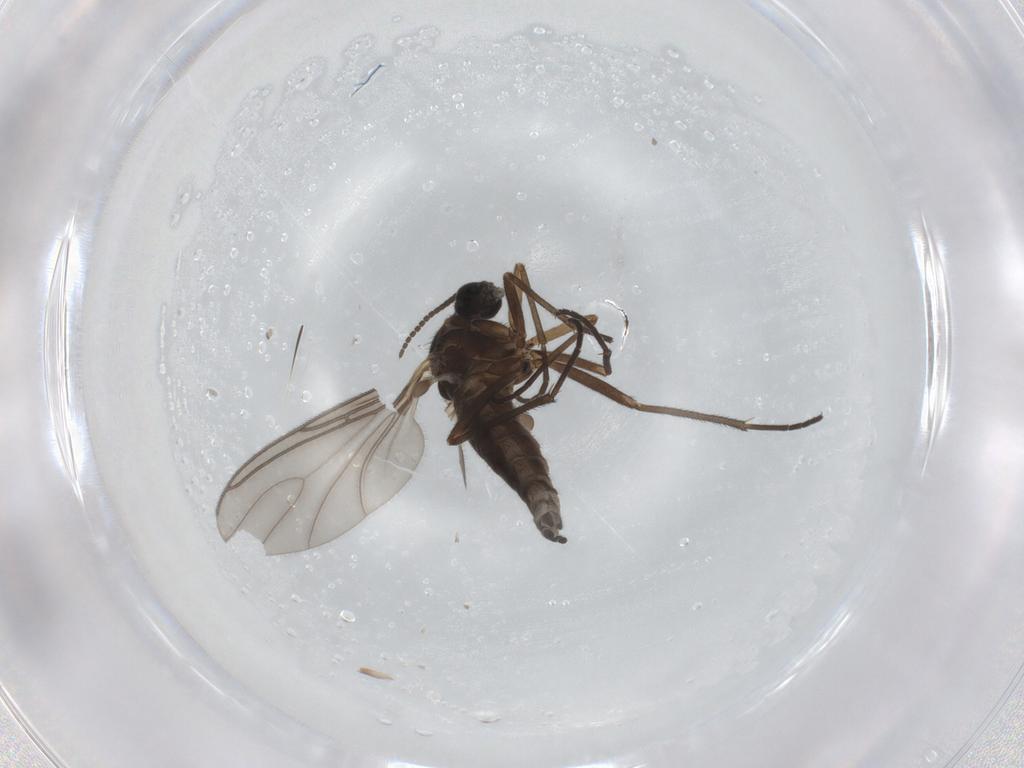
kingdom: Animalia
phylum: Arthropoda
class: Insecta
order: Diptera
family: Sciaridae
